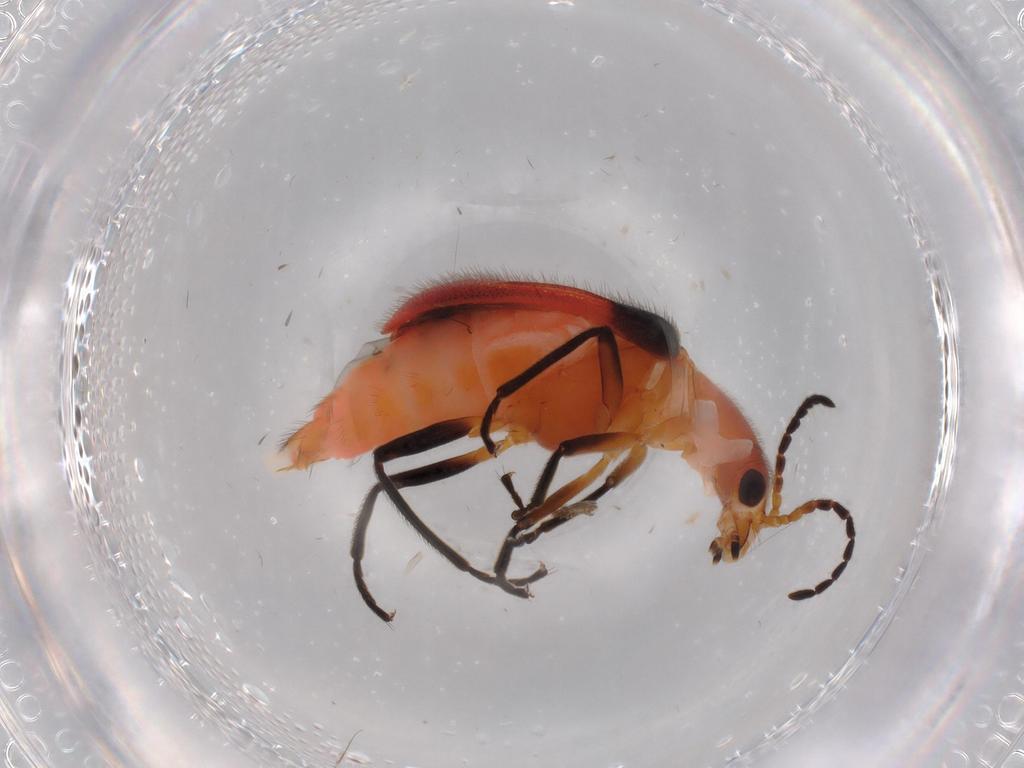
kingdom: Animalia
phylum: Arthropoda
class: Insecta
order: Coleoptera
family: Melyridae
